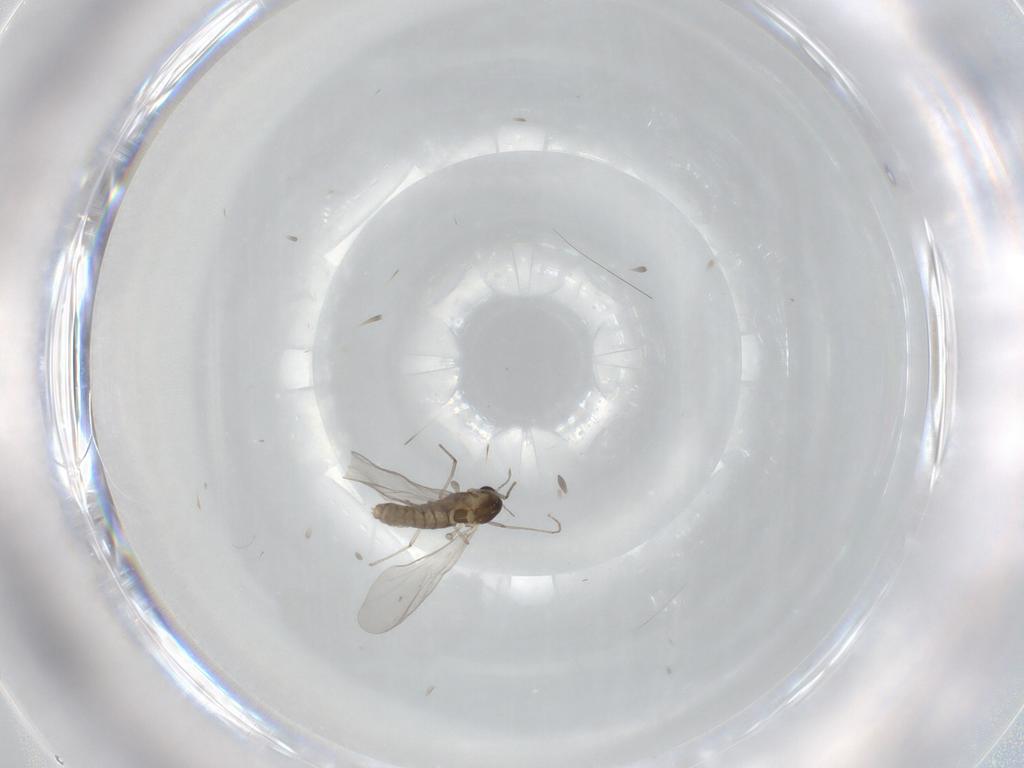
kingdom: Animalia
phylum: Arthropoda
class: Insecta
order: Diptera
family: Chironomidae
